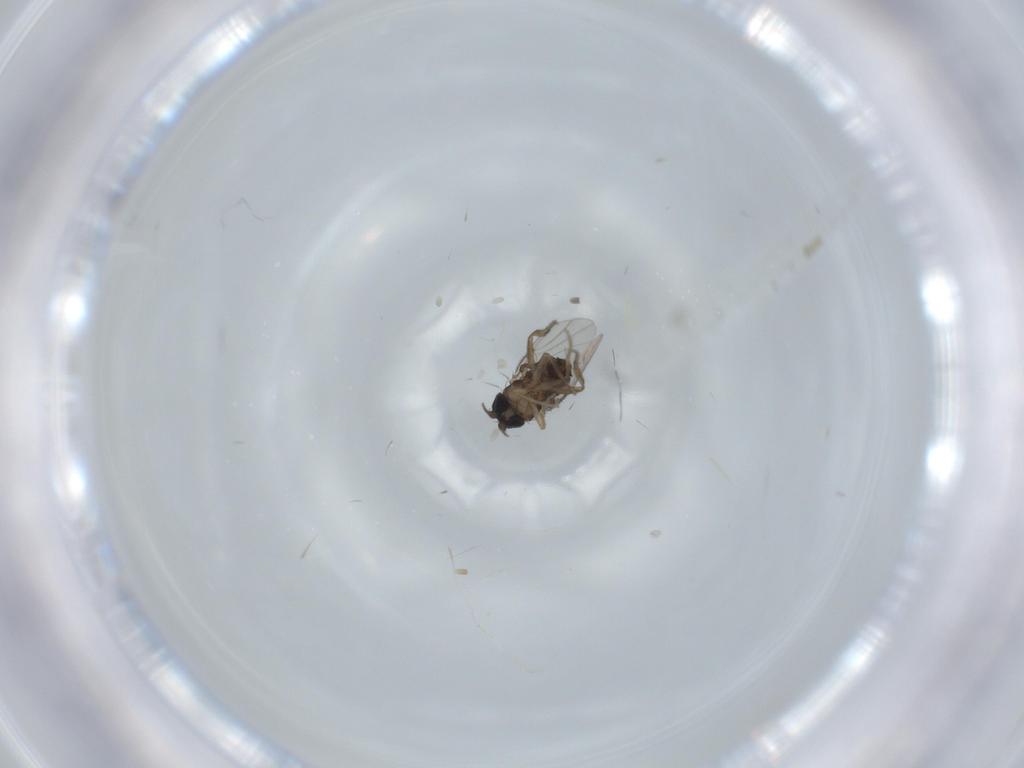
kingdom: Animalia
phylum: Arthropoda
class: Insecta
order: Diptera
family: Phoridae
